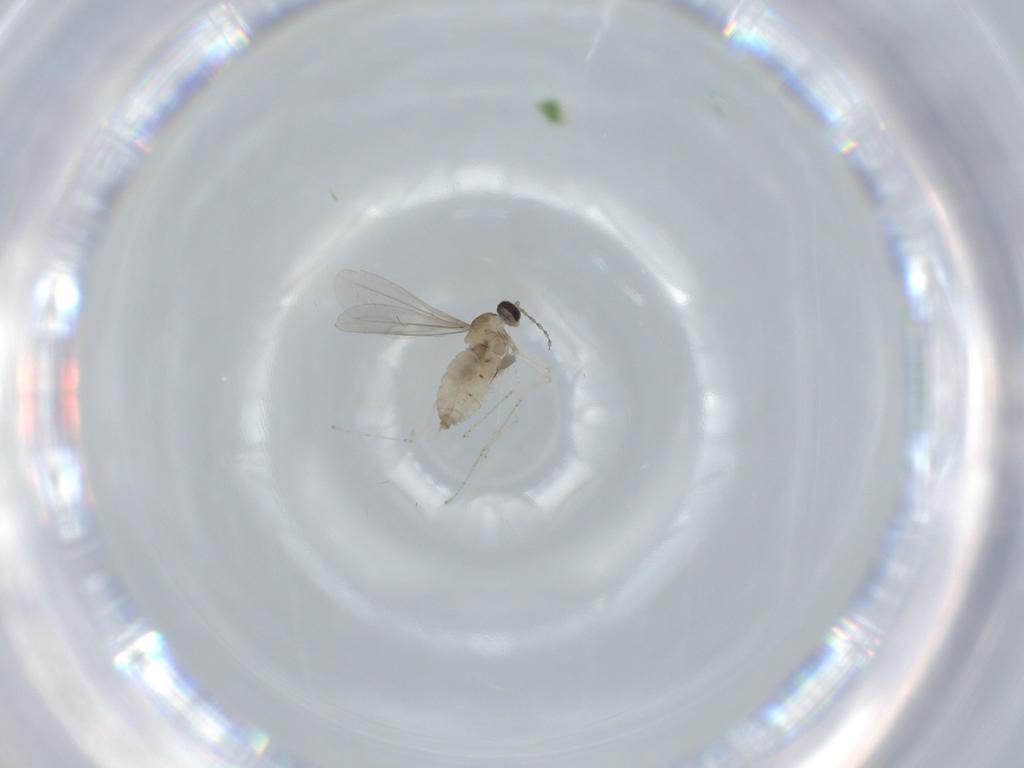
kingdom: Animalia
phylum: Arthropoda
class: Insecta
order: Diptera
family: Cecidomyiidae
